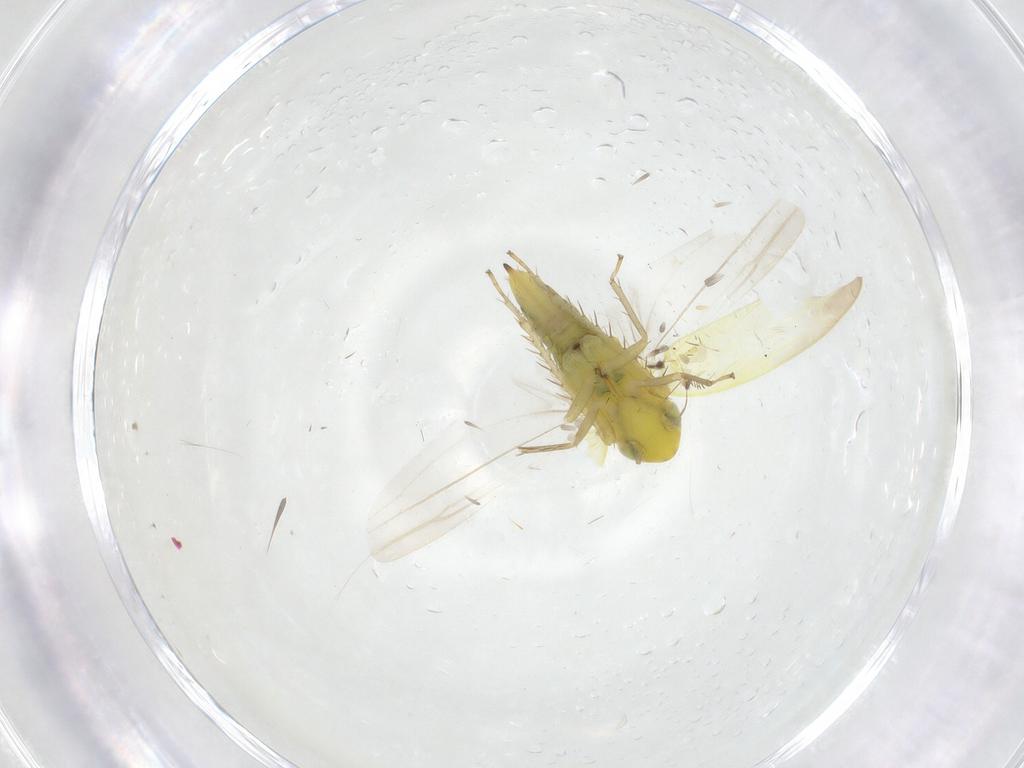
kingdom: Animalia
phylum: Arthropoda
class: Insecta
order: Hemiptera
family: Cicadellidae
